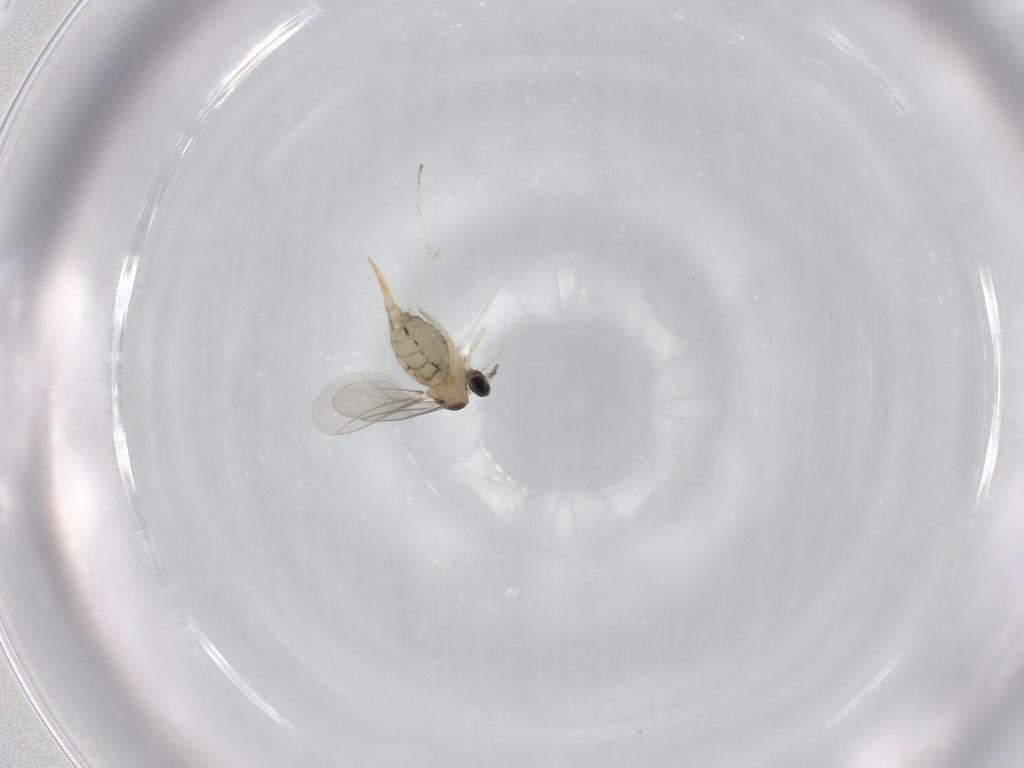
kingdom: Animalia
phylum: Arthropoda
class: Insecta
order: Diptera
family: Cecidomyiidae
